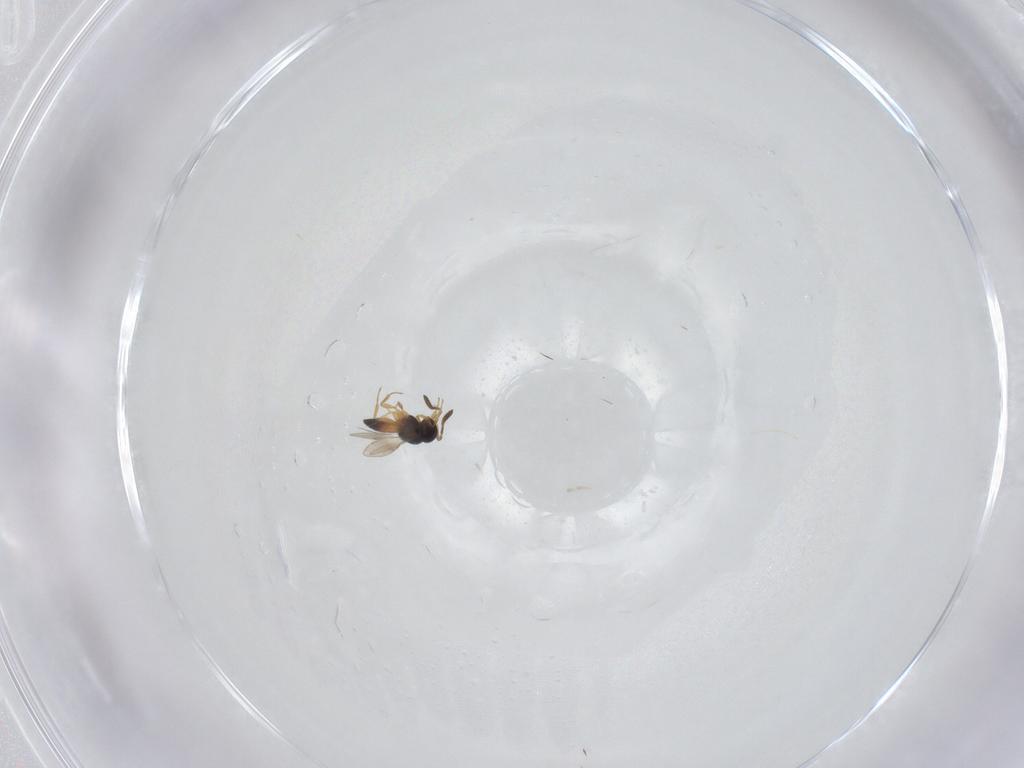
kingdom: Animalia
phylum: Arthropoda
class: Insecta
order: Hymenoptera
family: Scelionidae
